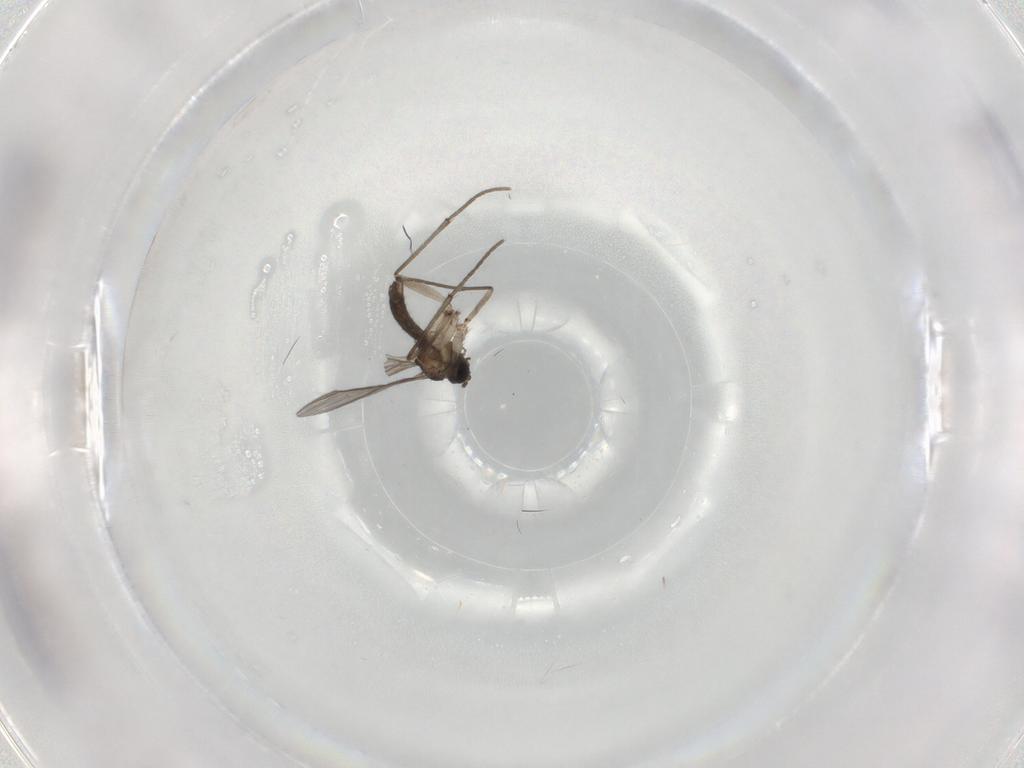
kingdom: Animalia
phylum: Arthropoda
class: Insecta
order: Diptera
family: Sciaridae
